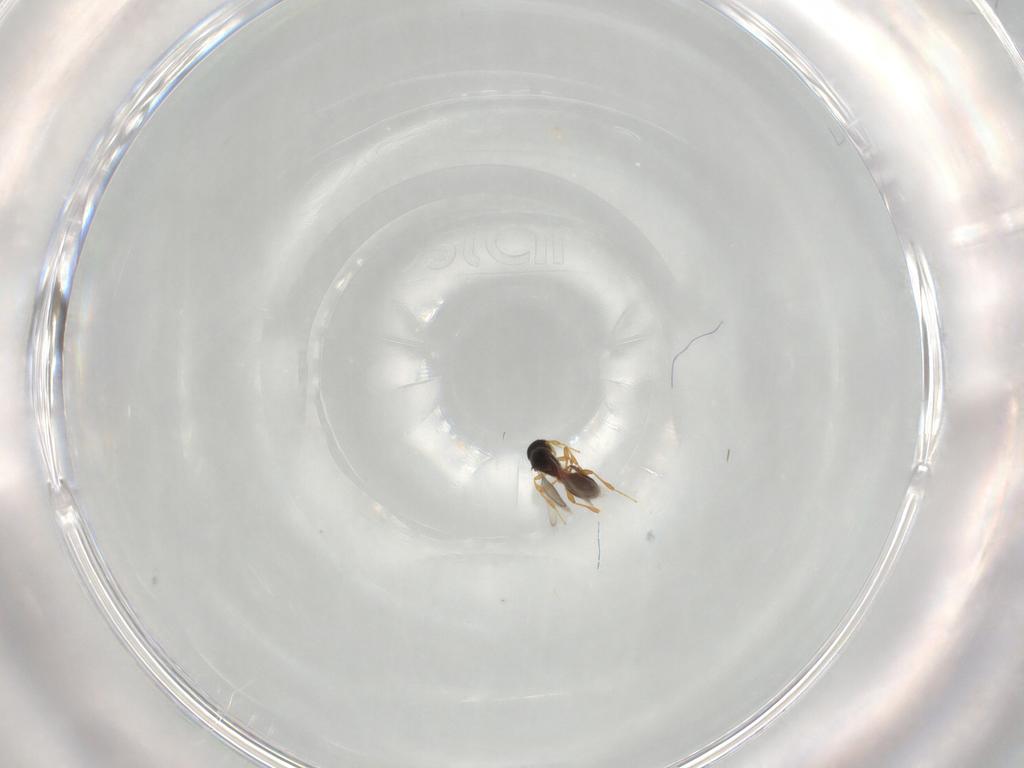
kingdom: Animalia
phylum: Arthropoda
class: Insecta
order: Hymenoptera
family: Platygastridae
